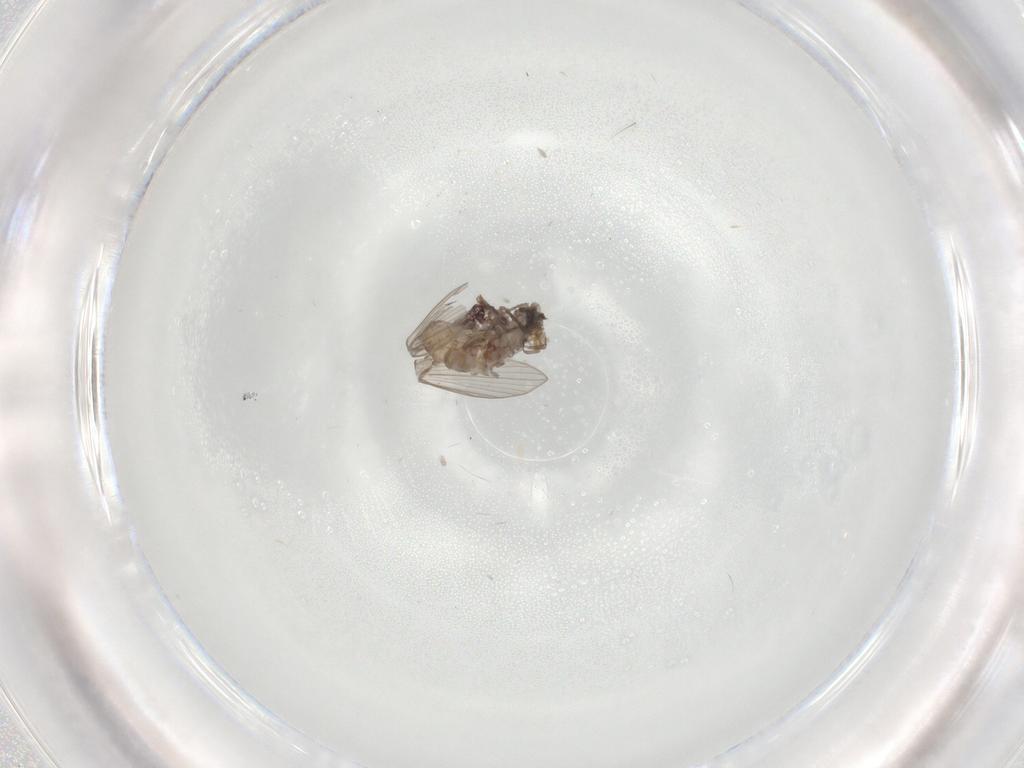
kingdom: Animalia
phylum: Arthropoda
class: Insecta
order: Diptera
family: Psychodidae
